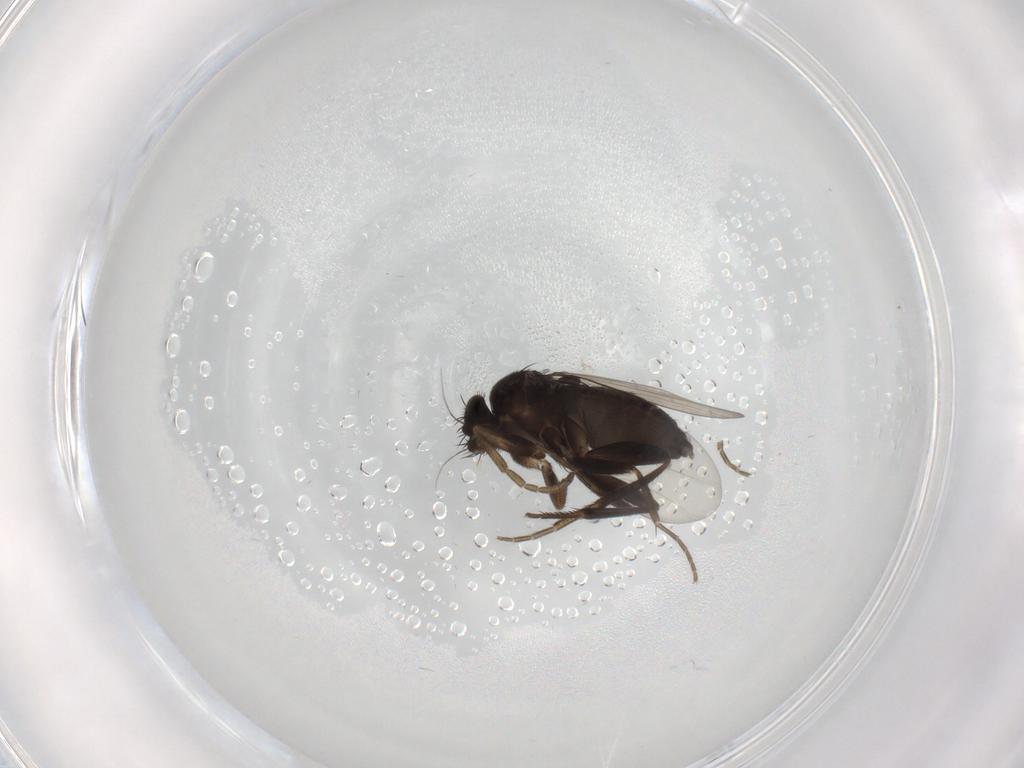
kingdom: Animalia
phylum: Arthropoda
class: Insecta
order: Diptera
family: Phoridae
